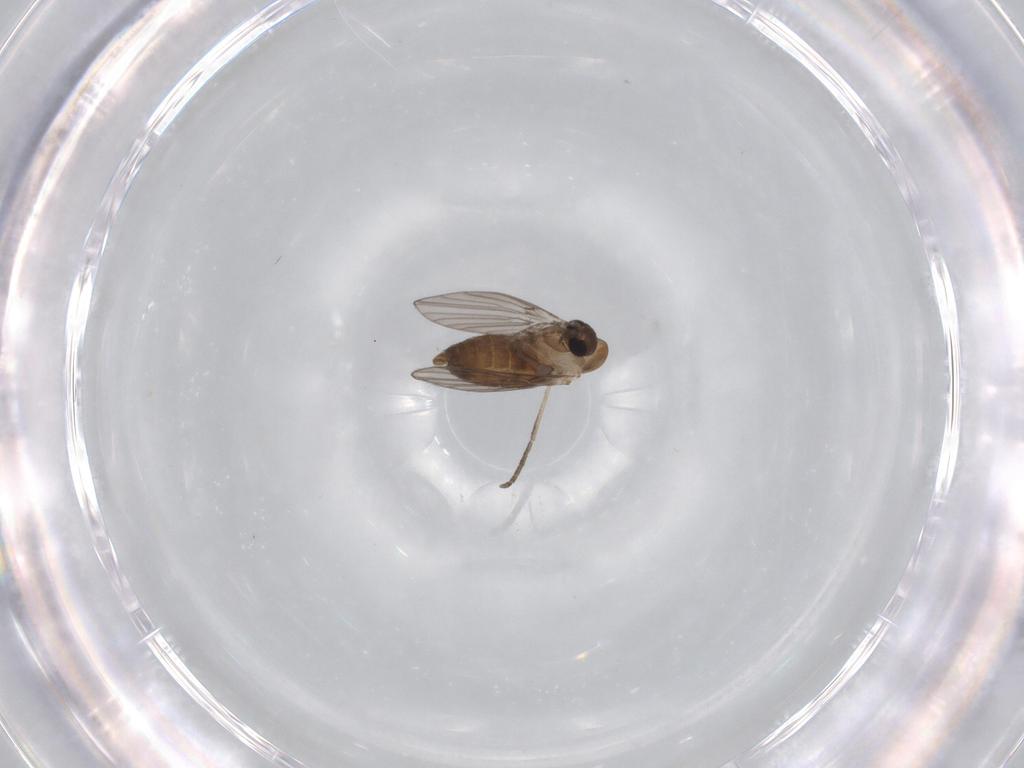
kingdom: Animalia
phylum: Arthropoda
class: Insecta
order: Diptera
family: Psychodidae
